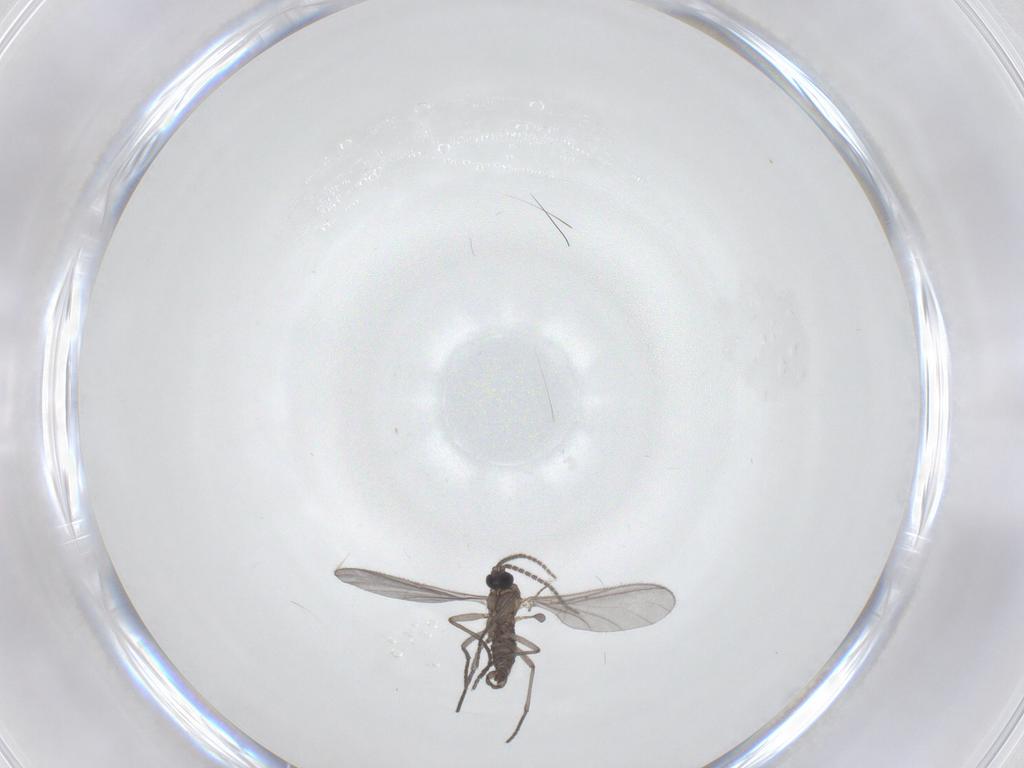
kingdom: Animalia
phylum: Arthropoda
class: Insecta
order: Diptera
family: Sciaridae
